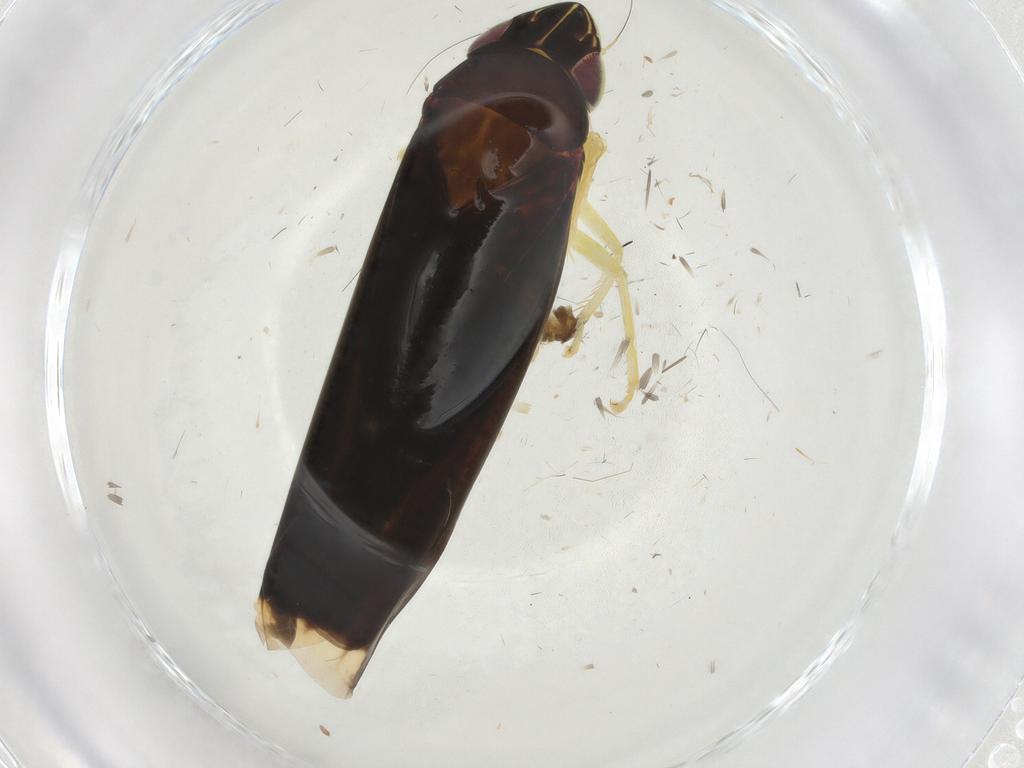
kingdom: Animalia
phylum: Arthropoda
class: Insecta
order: Hemiptera
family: Cicadellidae
